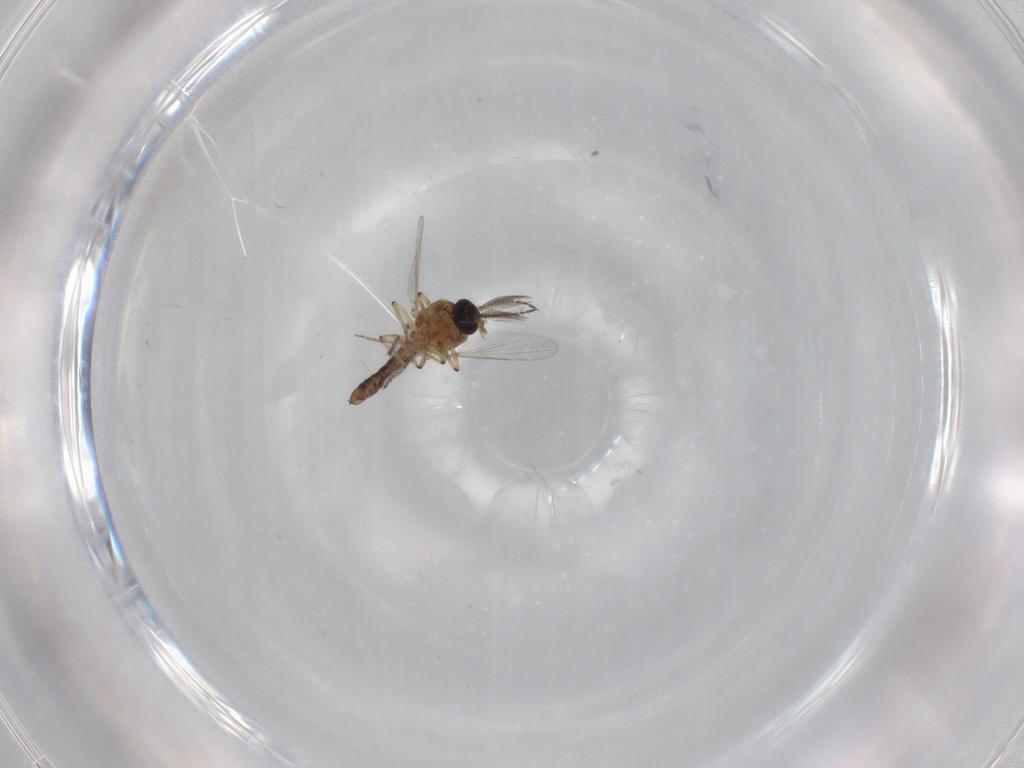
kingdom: Animalia
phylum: Arthropoda
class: Insecta
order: Diptera
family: Ceratopogonidae
